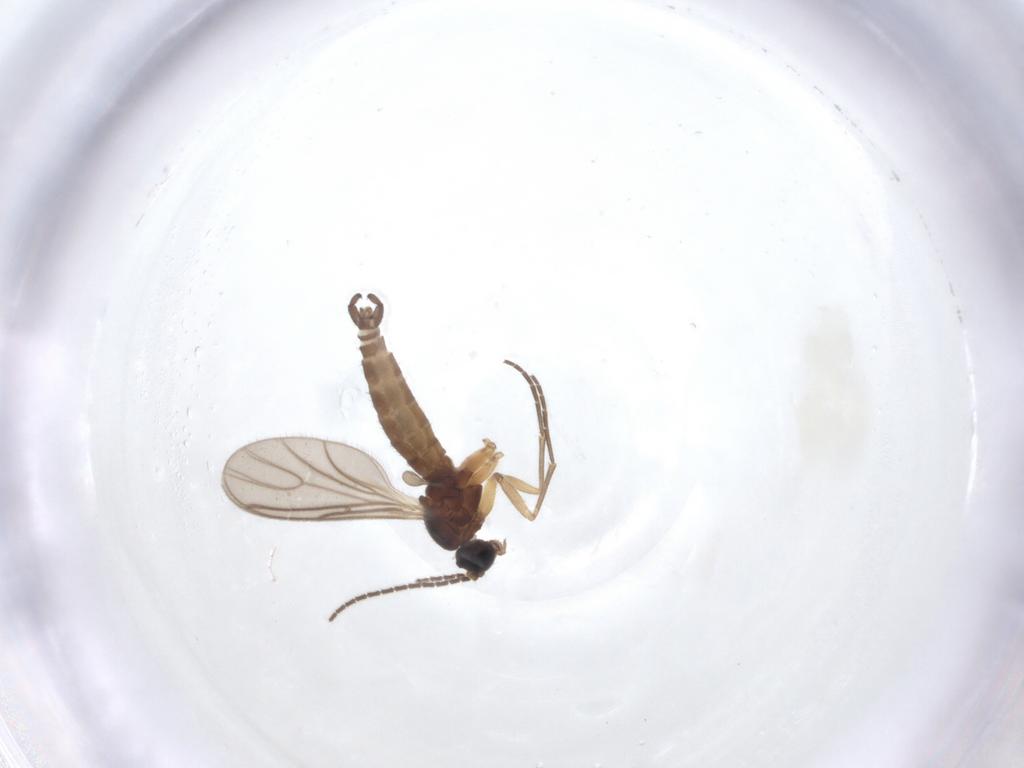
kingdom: Animalia
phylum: Arthropoda
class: Insecta
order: Diptera
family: Sciaridae
